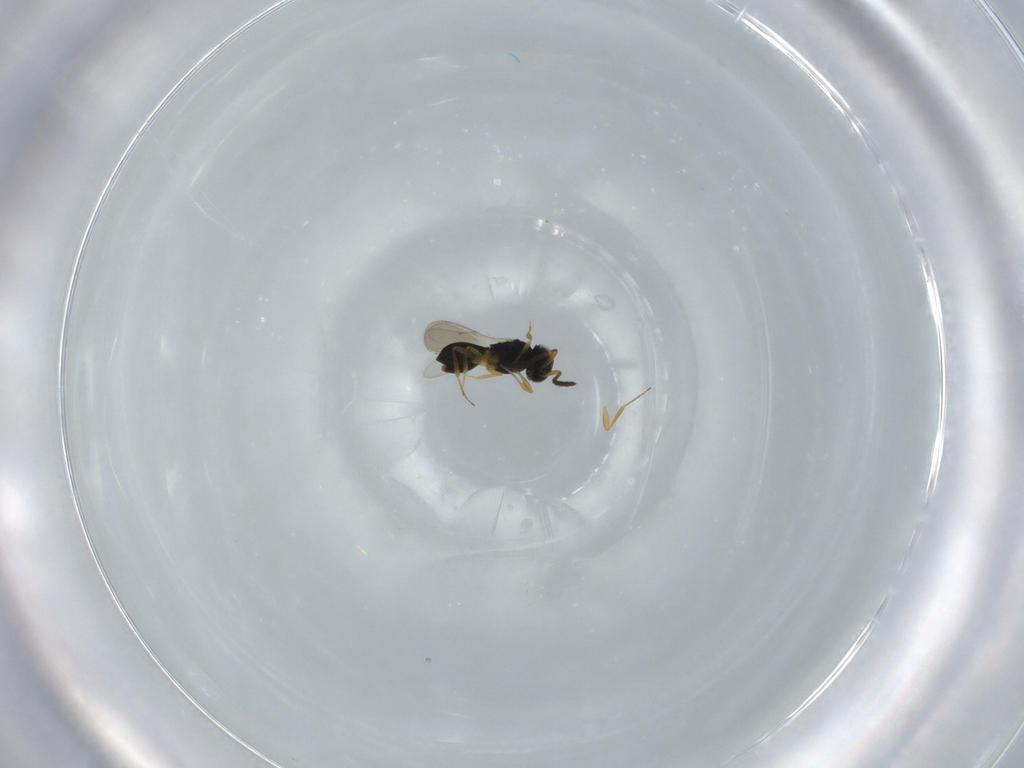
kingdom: Animalia
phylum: Arthropoda
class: Insecta
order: Hymenoptera
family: Scelionidae
